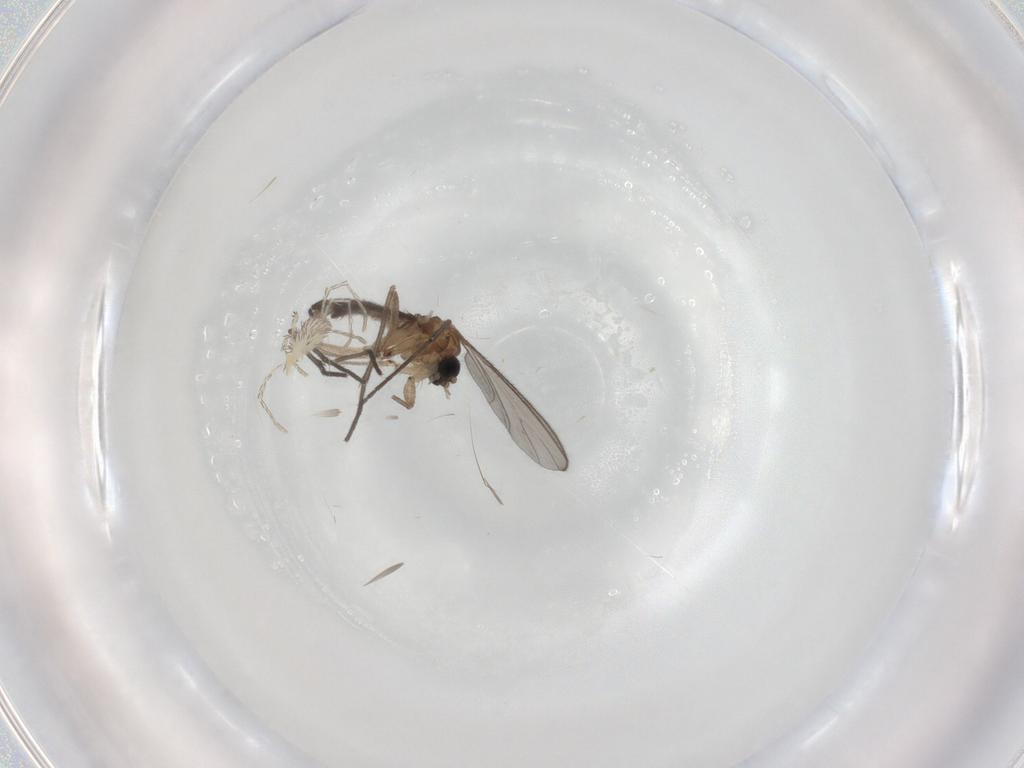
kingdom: Animalia
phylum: Arthropoda
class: Insecta
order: Diptera
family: Sciaridae
